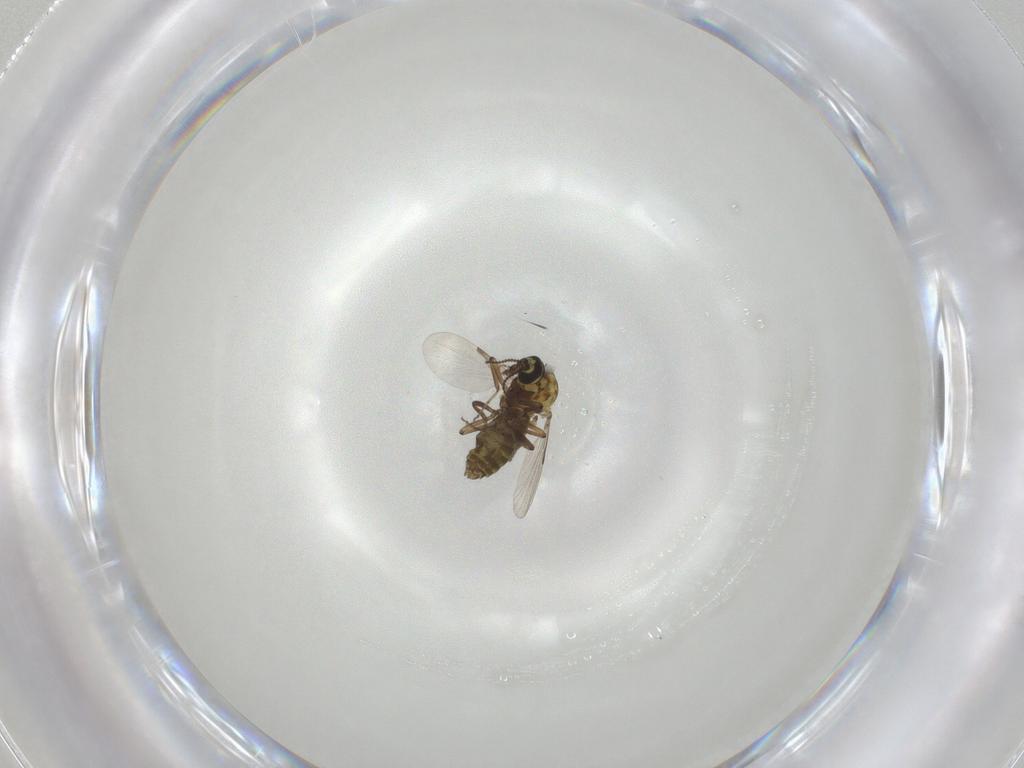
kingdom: Animalia
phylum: Arthropoda
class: Insecta
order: Diptera
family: Ceratopogonidae
